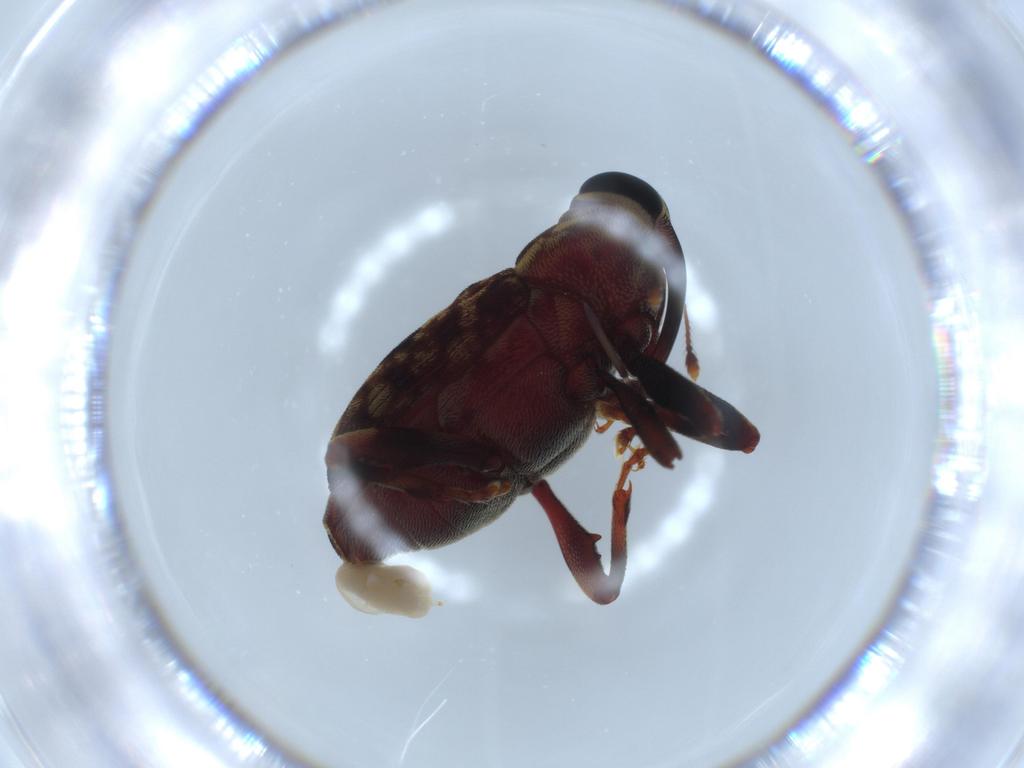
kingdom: Animalia
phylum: Arthropoda
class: Insecta
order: Coleoptera
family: Curculionidae
